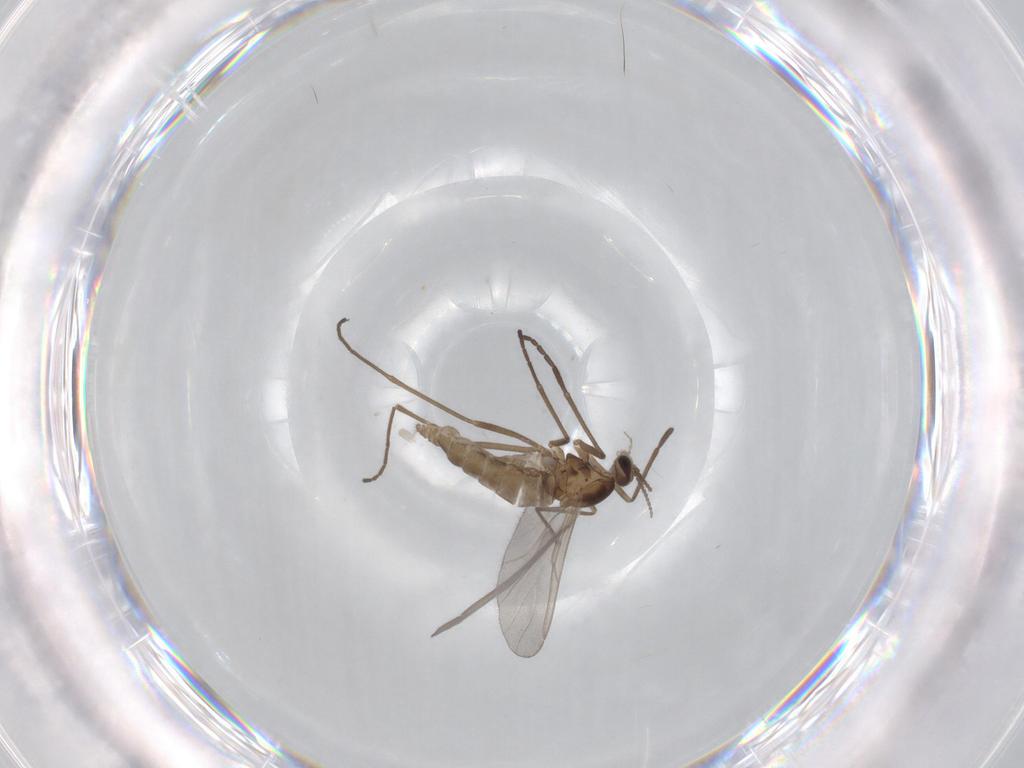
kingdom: Animalia
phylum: Arthropoda
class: Insecta
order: Diptera
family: Cecidomyiidae
